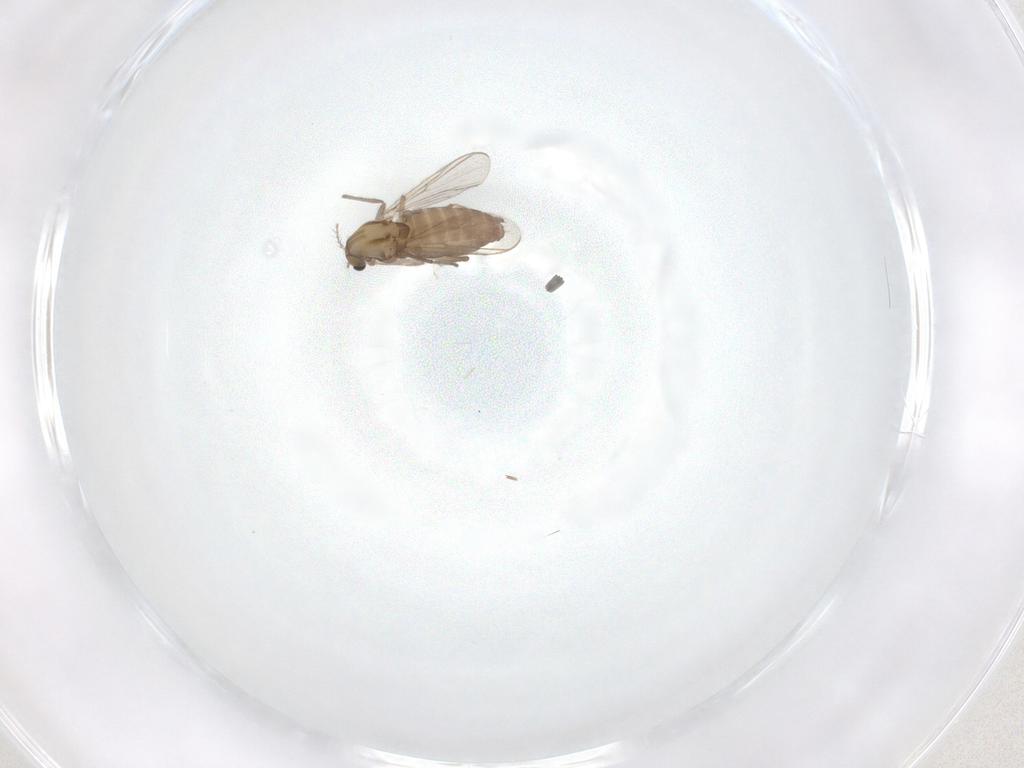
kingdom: Animalia
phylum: Arthropoda
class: Insecta
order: Diptera
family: Chironomidae
